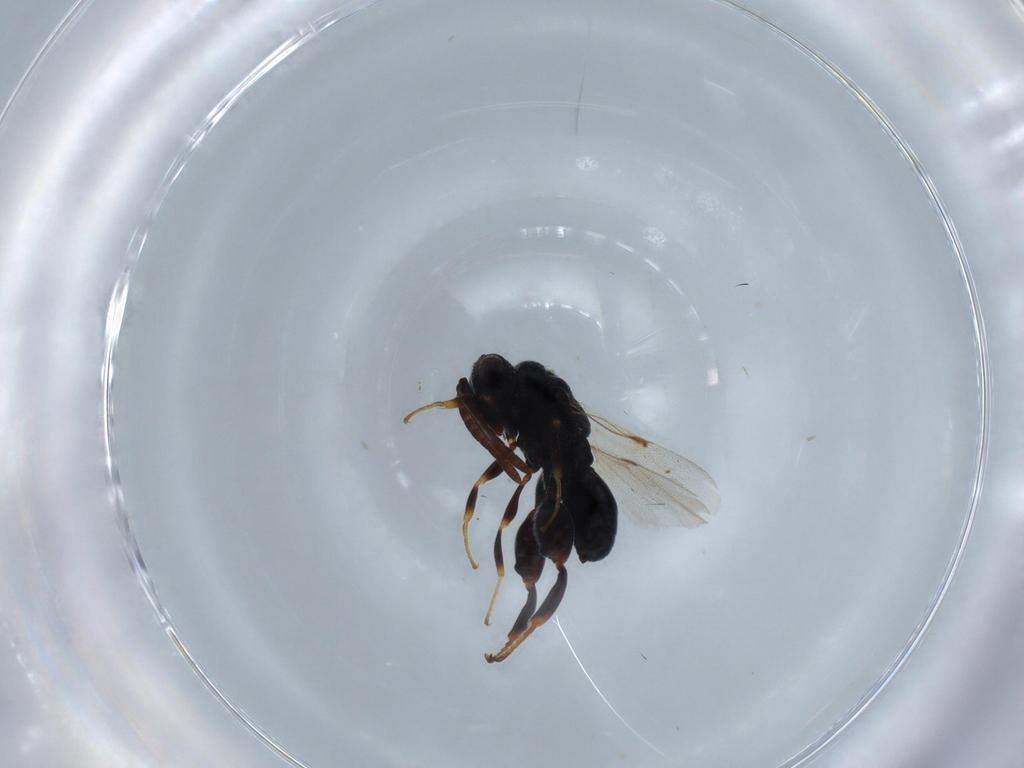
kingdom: Animalia
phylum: Arthropoda
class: Insecta
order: Hymenoptera
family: Chalcididae
